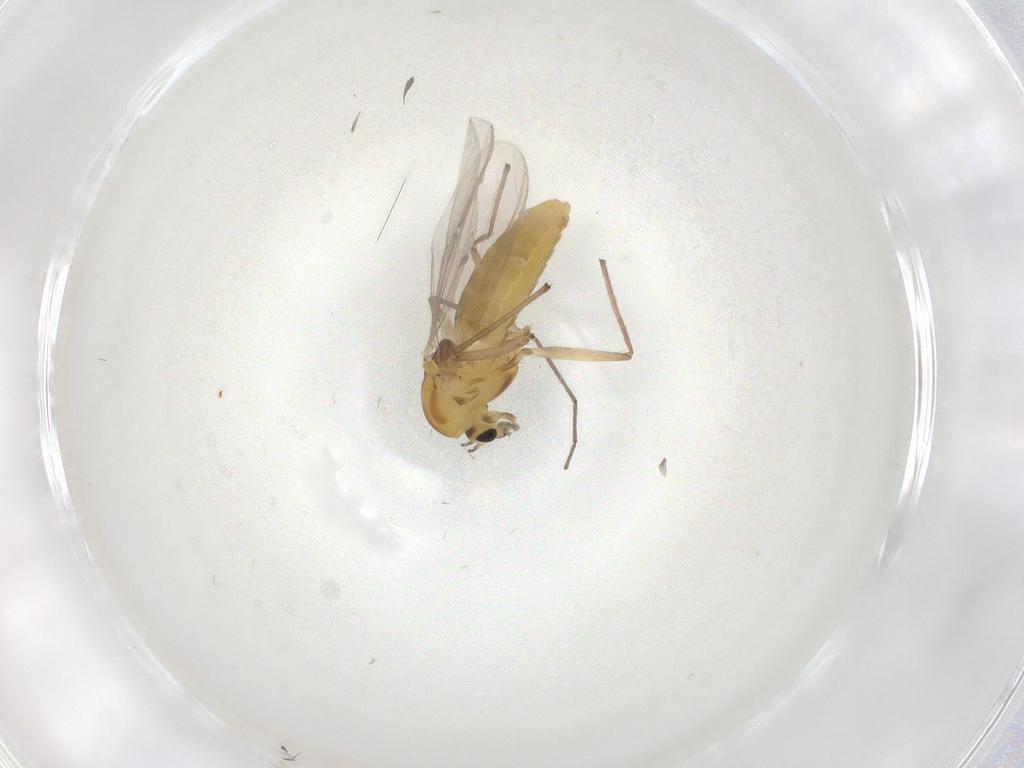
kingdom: Animalia
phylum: Arthropoda
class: Insecta
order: Diptera
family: Chironomidae
